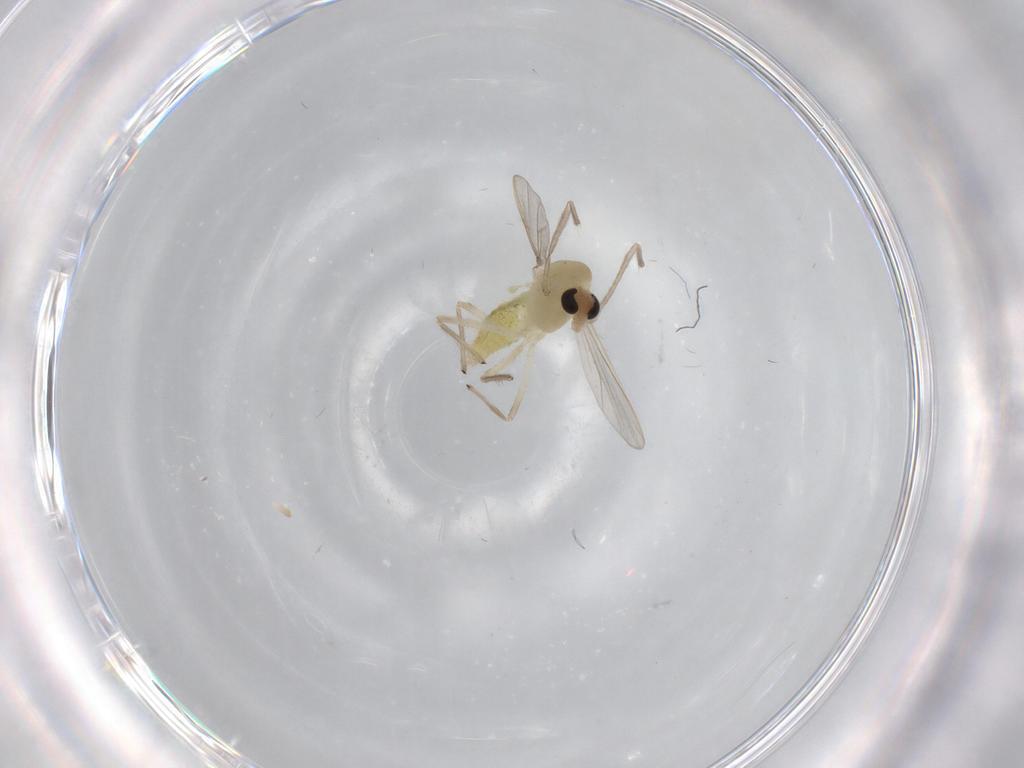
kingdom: Animalia
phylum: Arthropoda
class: Insecta
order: Diptera
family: Chironomidae
